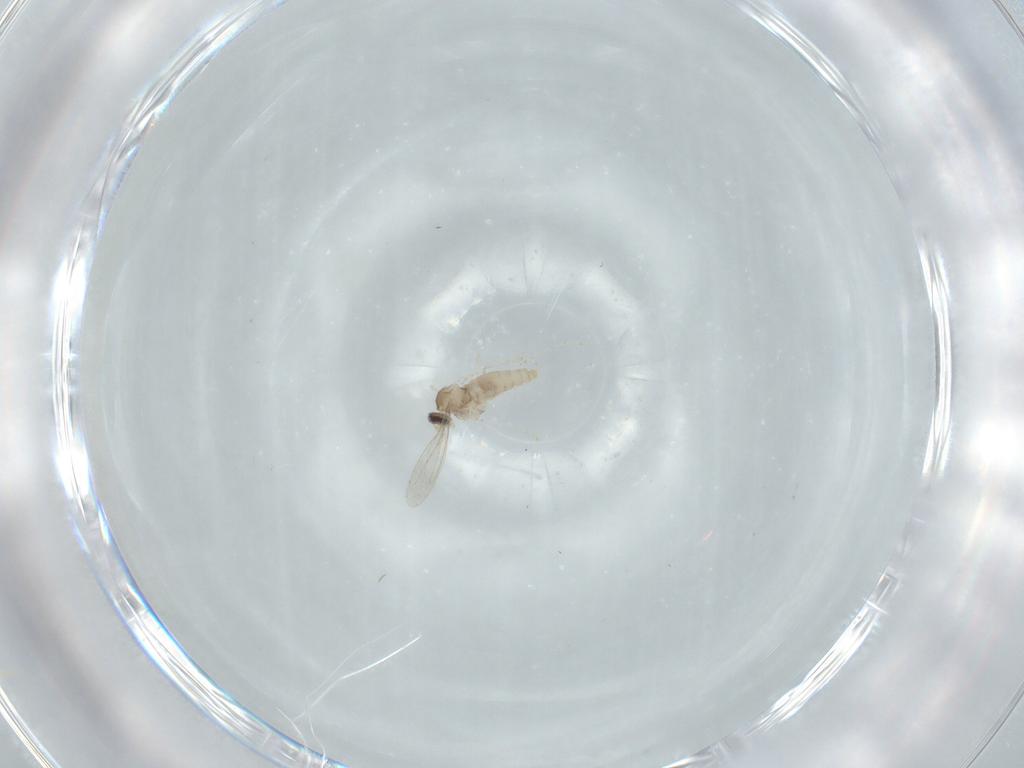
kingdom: Animalia
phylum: Arthropoda
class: Insecta
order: Diptera
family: Cecidomyiidae
